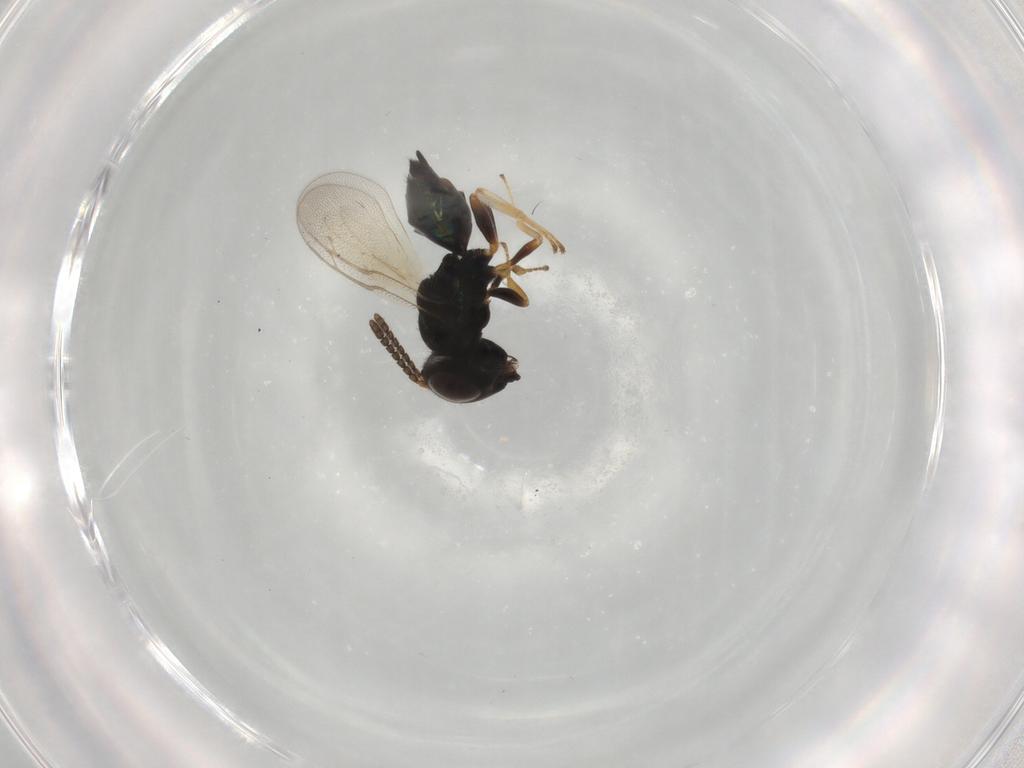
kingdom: Animalia
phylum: Arthropoda
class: Insecta
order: Hymenoptera
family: Pteromalidae
